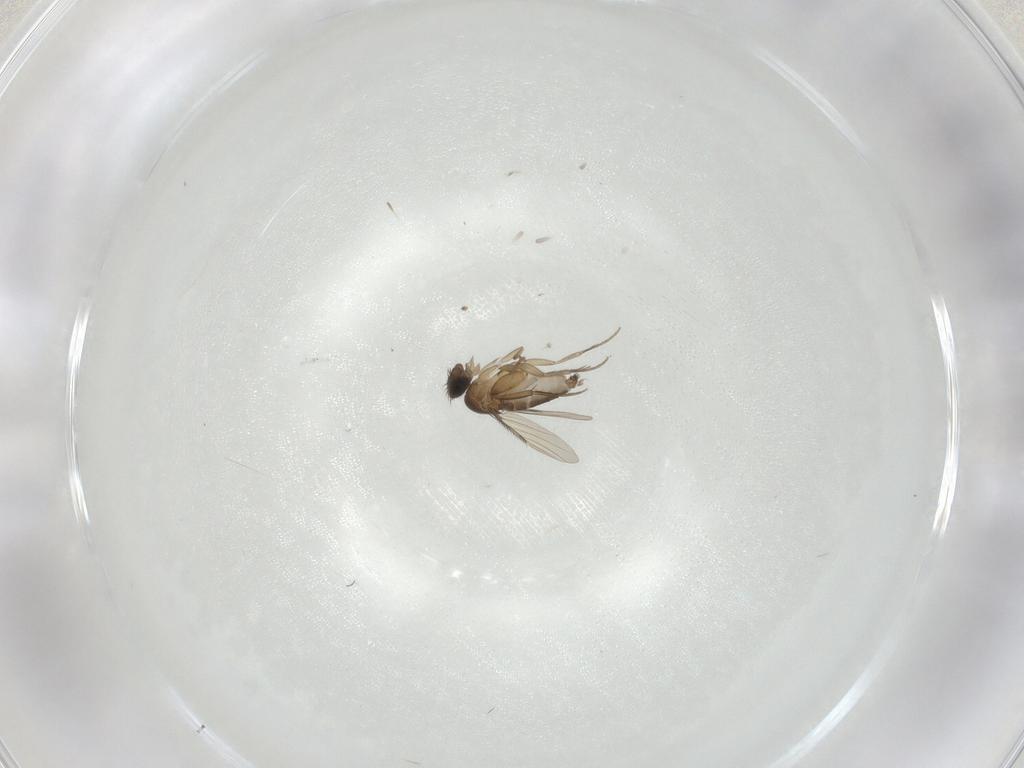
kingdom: Animalia
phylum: Arthropoda
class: Insecta
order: Diptera
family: Phoridae
